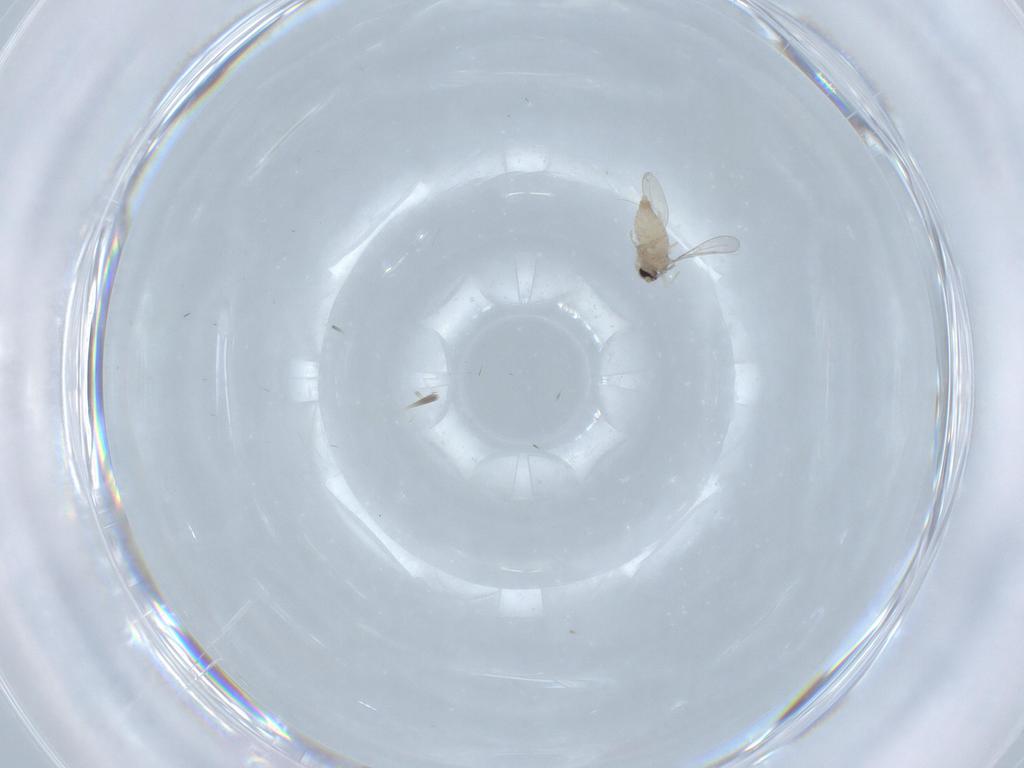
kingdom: Animalia
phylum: Arthropoda
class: Insecta
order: Diptera
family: Cecidomyiidae
